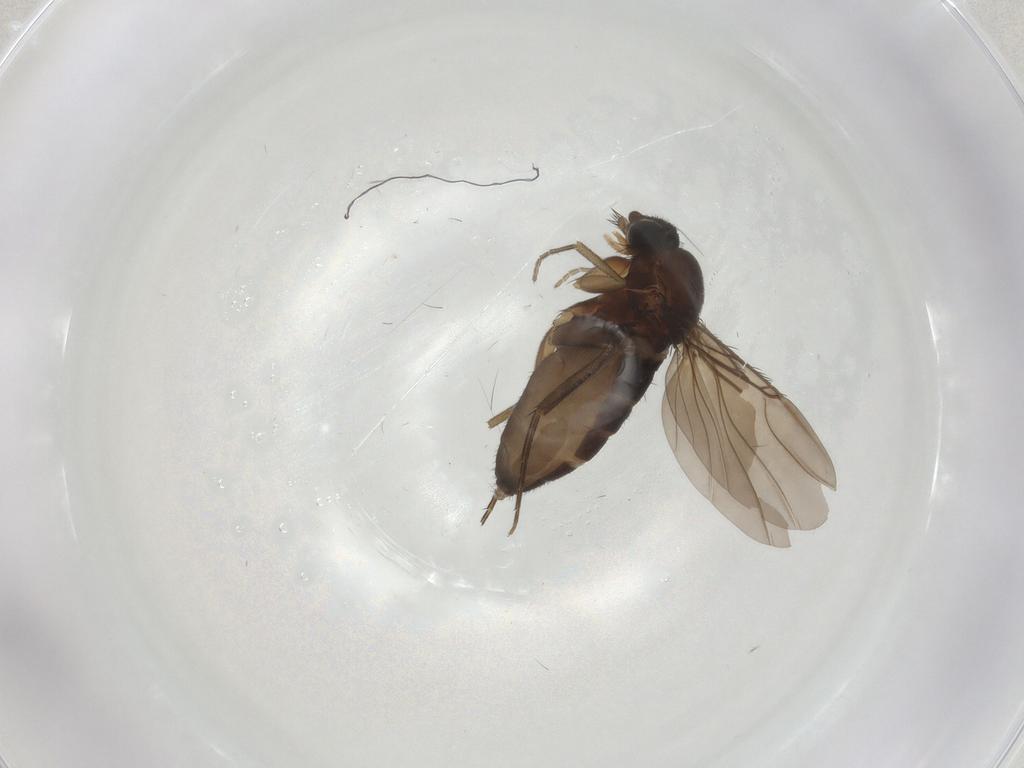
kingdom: Animalia
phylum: Arthropoda
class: Insecta
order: Diptera
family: Phoridae
